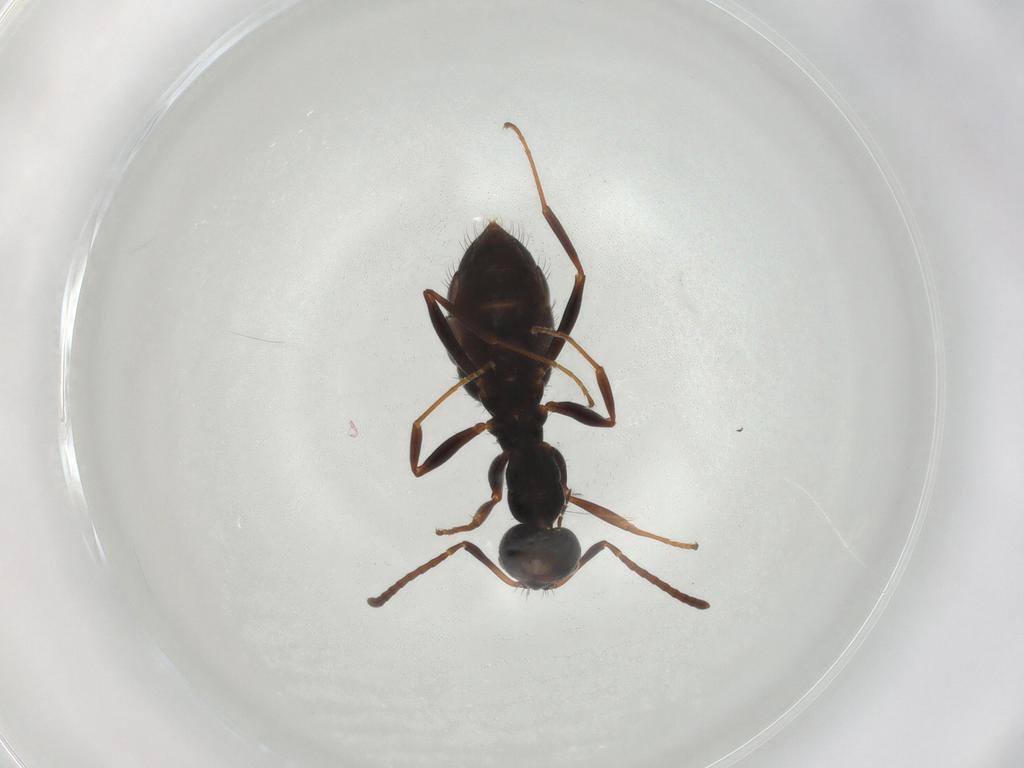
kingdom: Animalia
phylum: Arthropoda
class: Insecta
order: Hymenoptera
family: Formicidae
